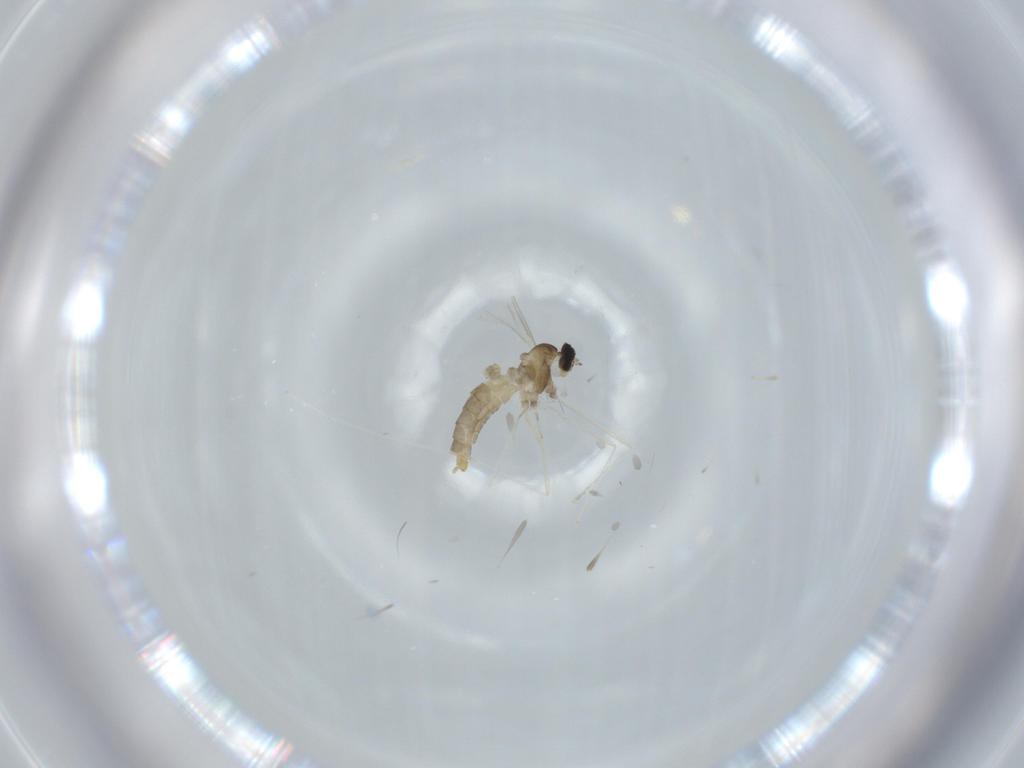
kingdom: Animalia
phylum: Arthropoda
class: Insecta
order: Diptera
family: Cecidomyiidae
